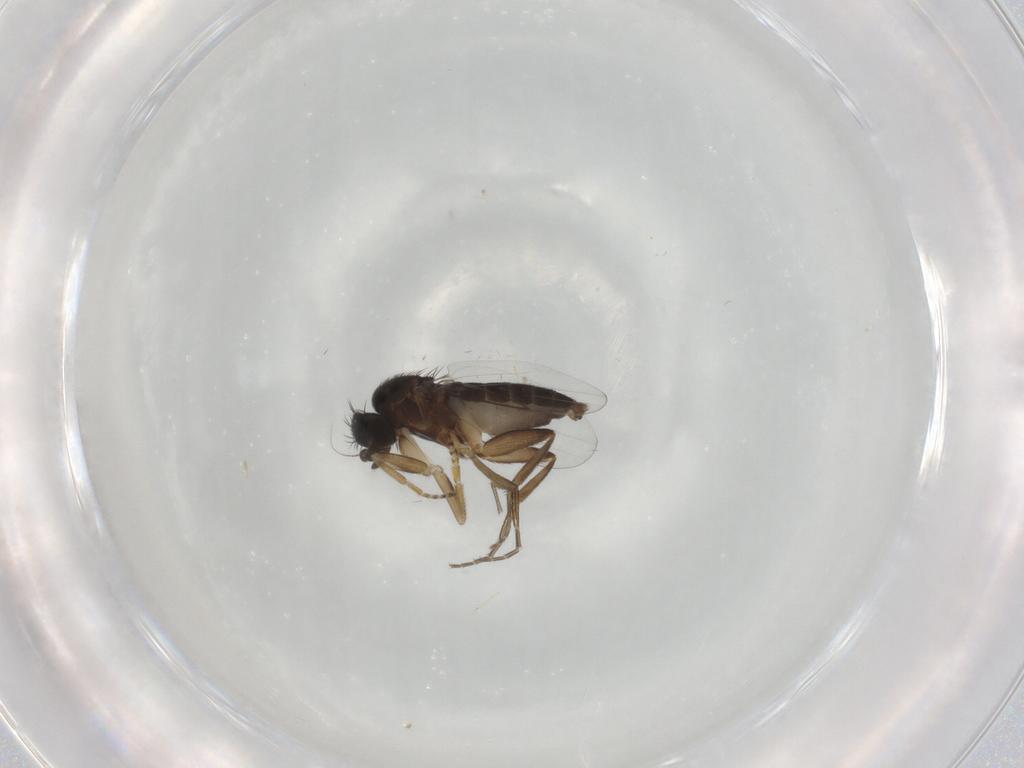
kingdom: Animalia
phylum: Arthropoda
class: Insecta
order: Diptera
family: Phoridae
